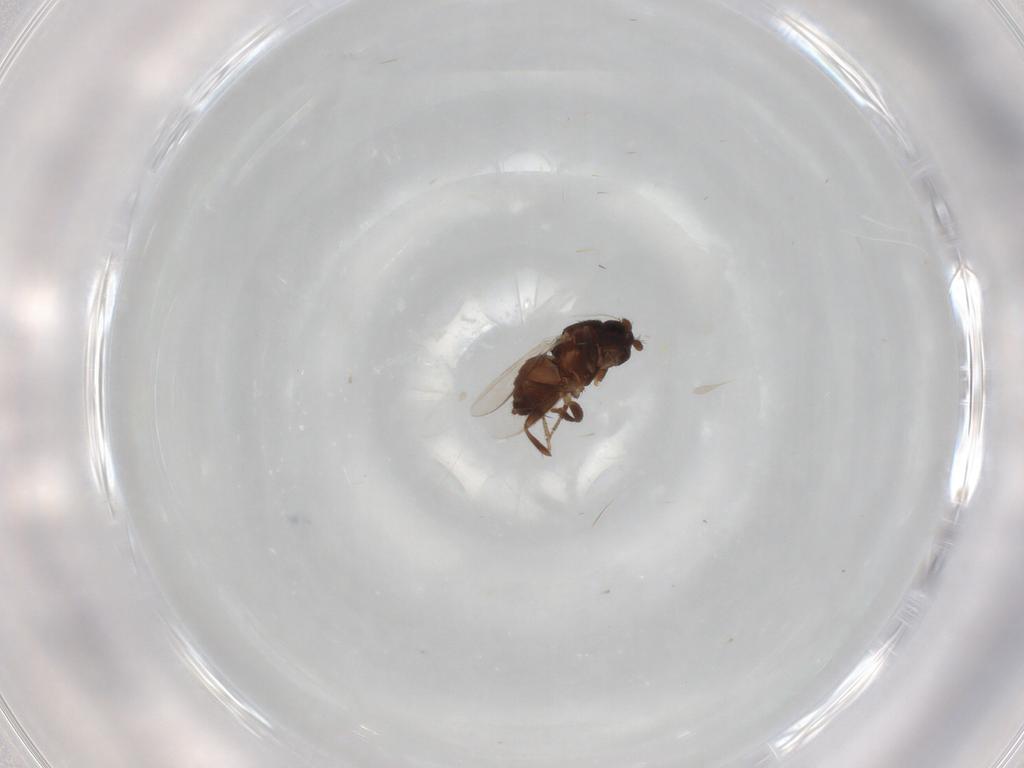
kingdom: Animalia
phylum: Arthropoda
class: Insecta
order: Diptera
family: Sphaeroceridae
